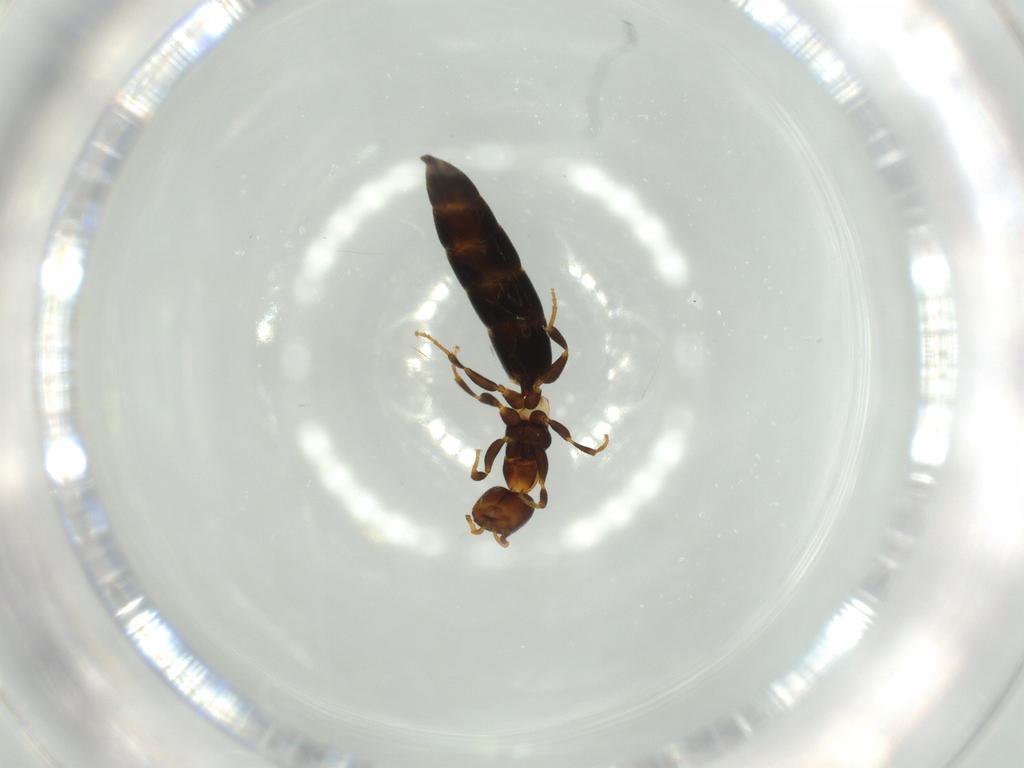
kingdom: Animalia
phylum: Arthropoda
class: Insecta
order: Hymenoptera
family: Bethylidae
